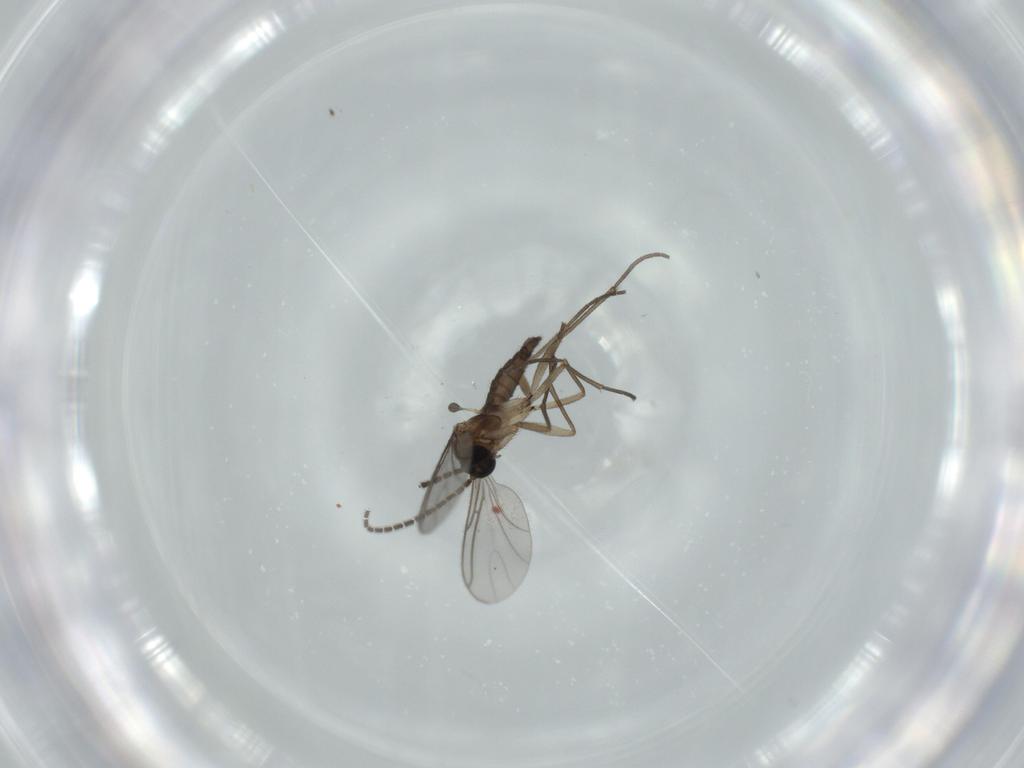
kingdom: Animalia
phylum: Arthropoda
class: Insecta
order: Diptera
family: Sciaridae
